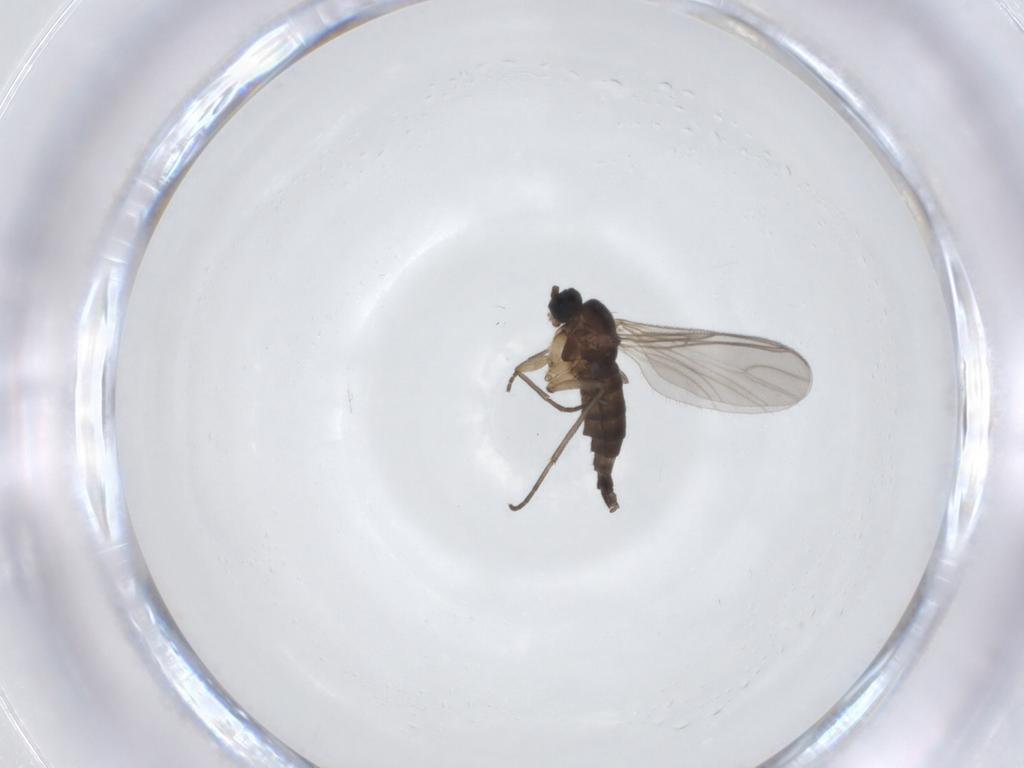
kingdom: Animalia
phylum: Arthropoda
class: Insecta
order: Diptera
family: Sciaridae
